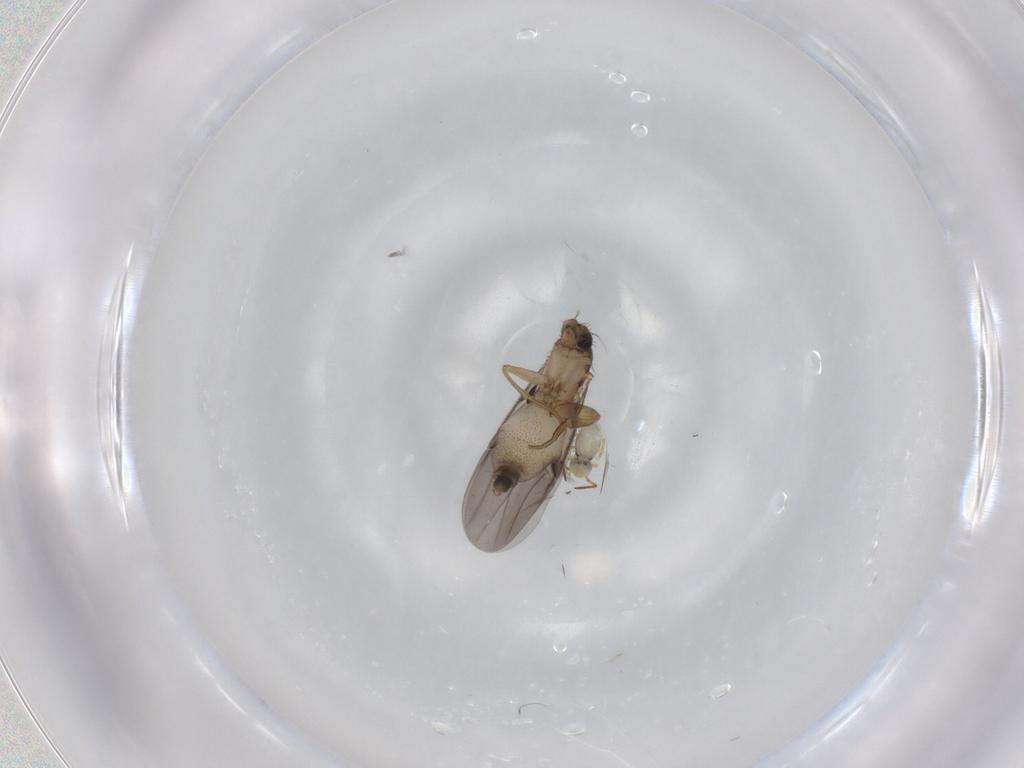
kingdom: Animalia
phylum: Arthropoda
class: Insecta
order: Diptera
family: Phoridae
